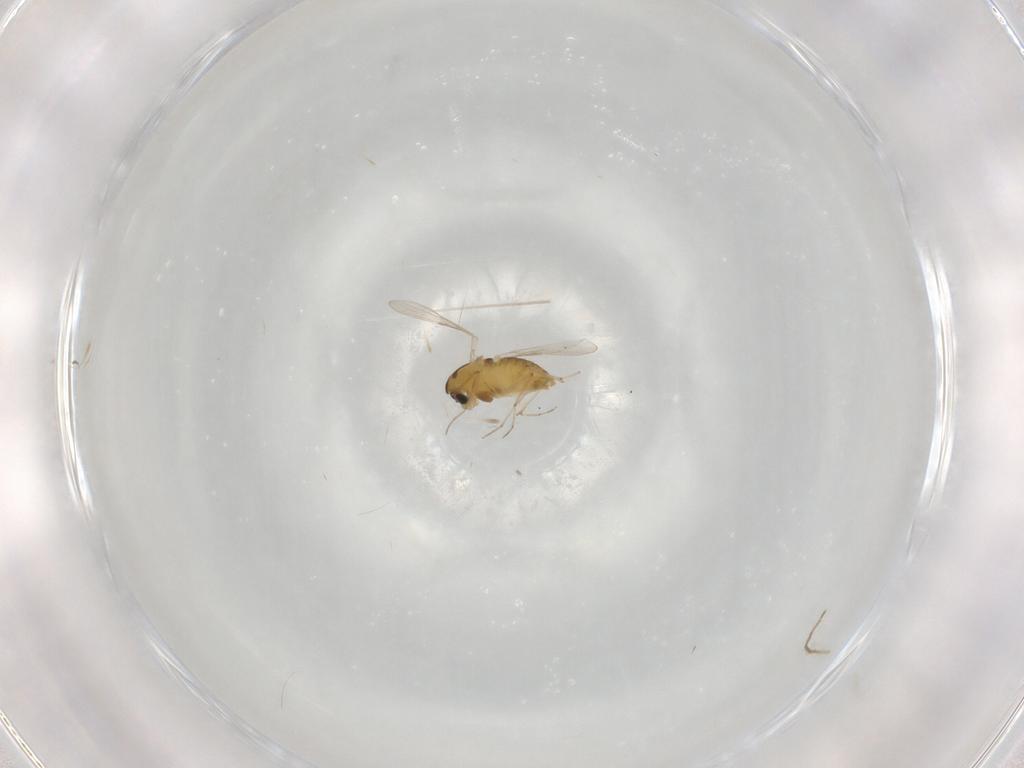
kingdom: Animalia
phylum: Arthropoda
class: Insecta
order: Diptera
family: Chironomidae
